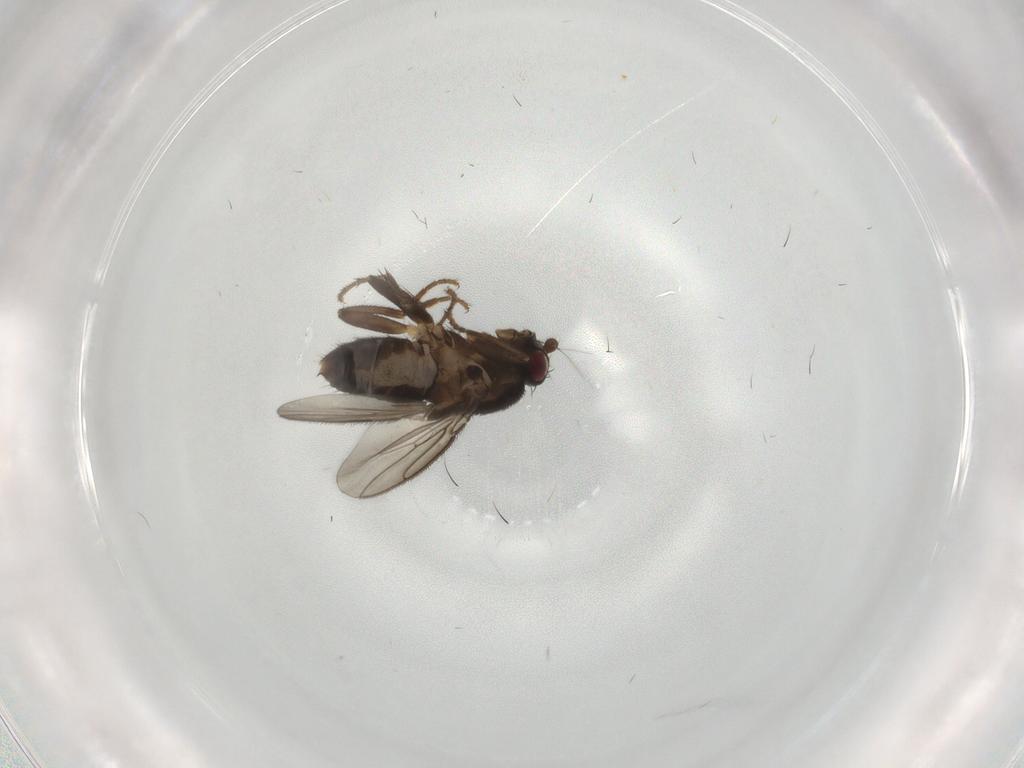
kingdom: Animalia
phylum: Arthropoda
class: Insecta
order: Diptera
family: Sphaeroceridae
